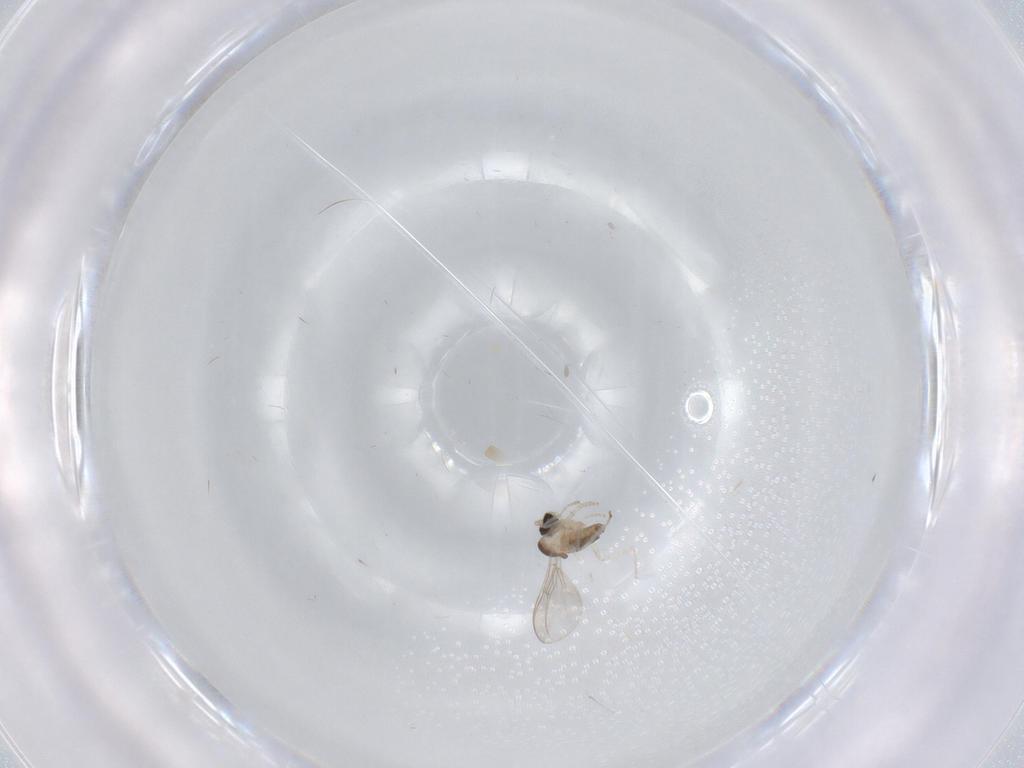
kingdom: Animalia
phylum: Arthropoda
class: Insecta
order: Diptera
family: Cecidomyiidae
